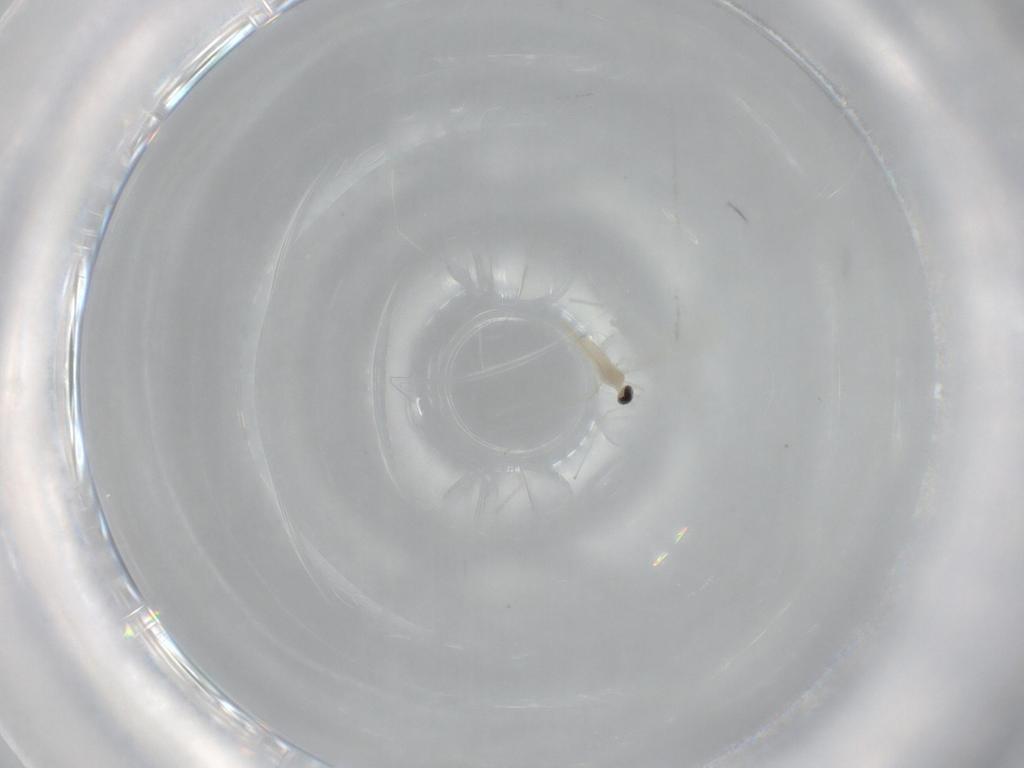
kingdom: Animalia
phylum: Arthropoda
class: Insecta
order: Diptera
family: Cecidomyiidae
